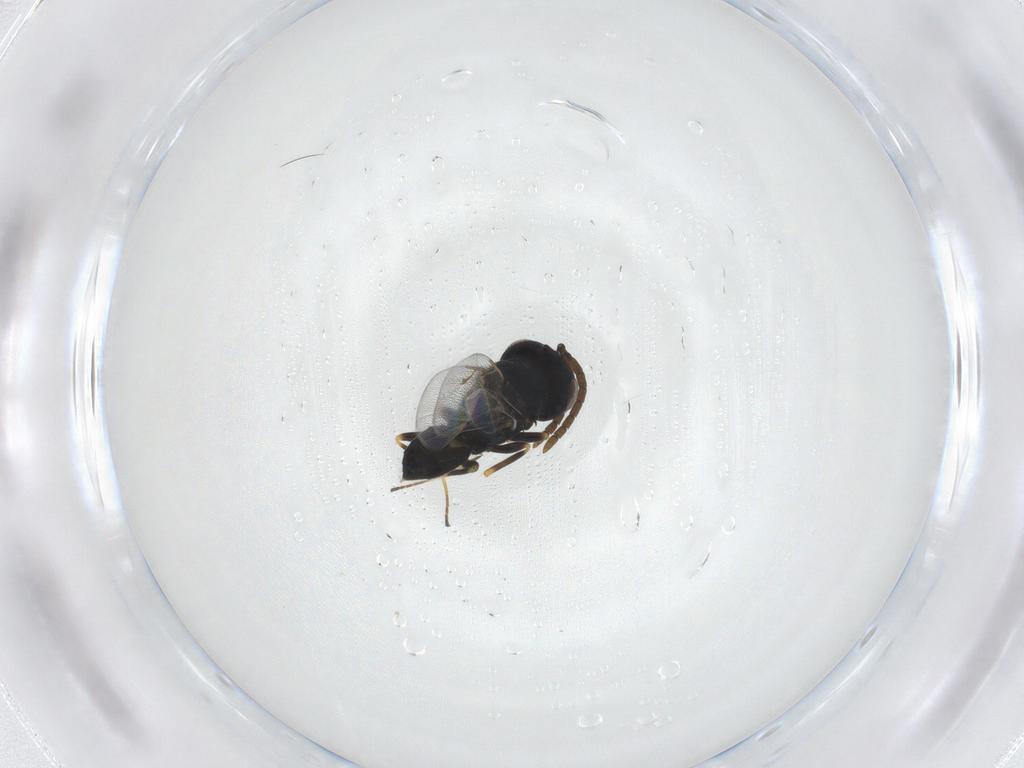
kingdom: Animalia
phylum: Arthropoda
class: Insecta
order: Hymenoptera
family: Pteromalidae
